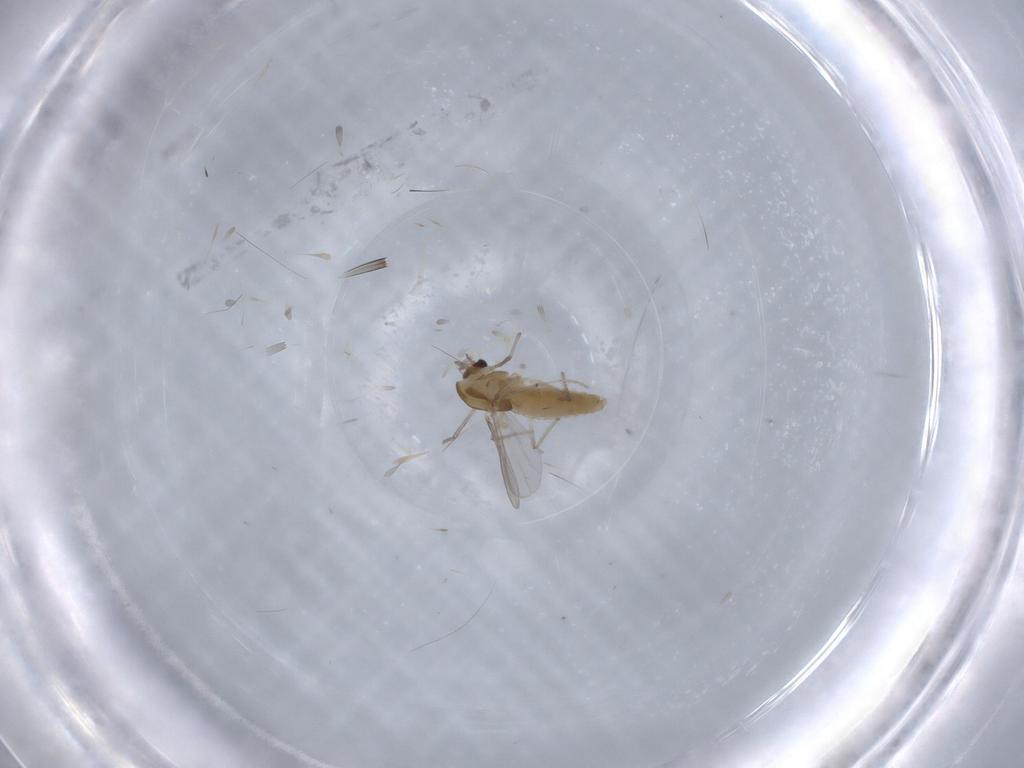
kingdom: Animalia
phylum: Arthropoda
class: Insecta
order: Diptera
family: Chironomidae
